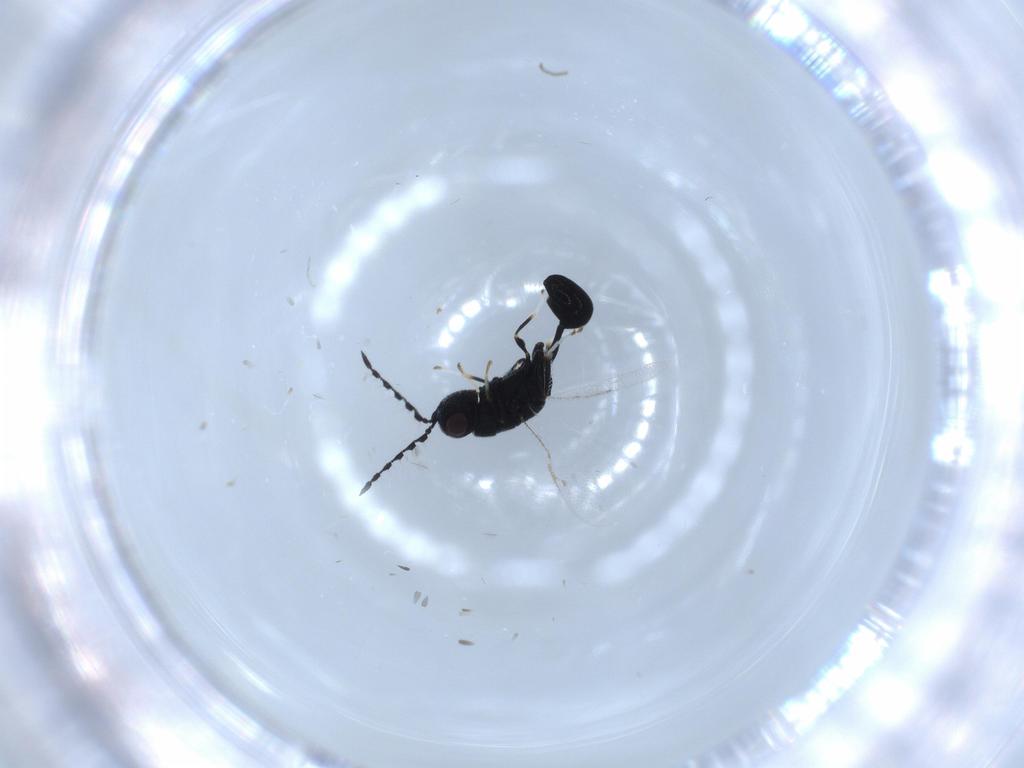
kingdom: Animalia
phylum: Arthropoda
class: Insecta
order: Hymenoptera
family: Eurytomidae
